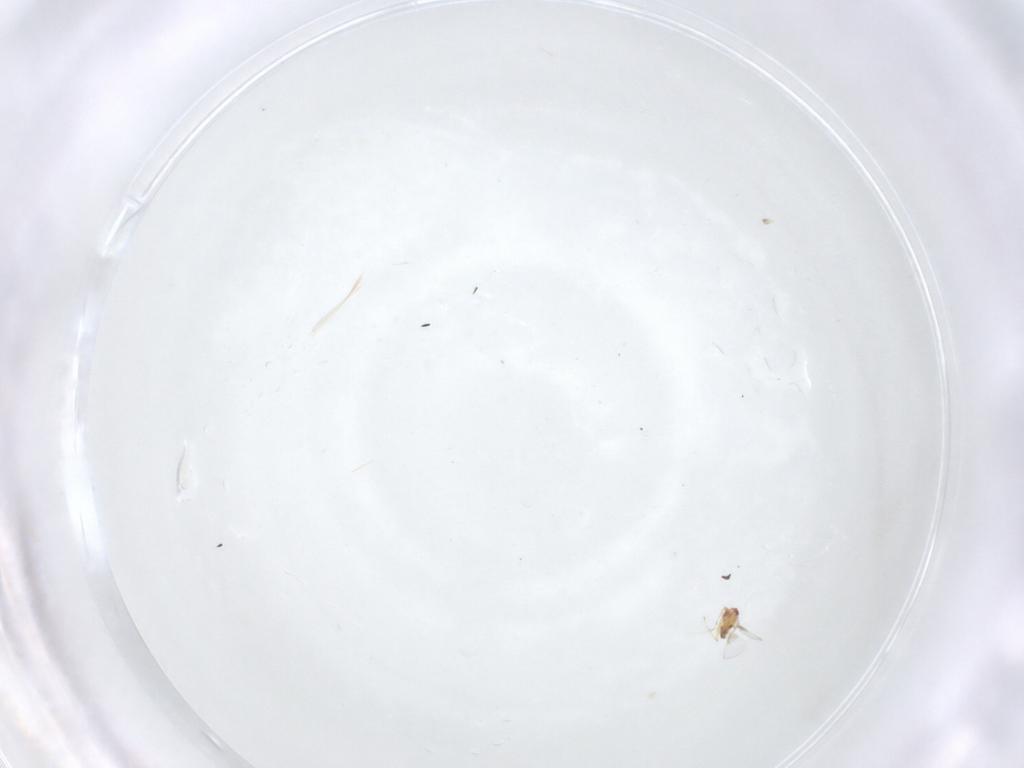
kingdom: Animalia
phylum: Arthropoda
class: Insecta
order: Hymenoptera
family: Trichogrammatidae
